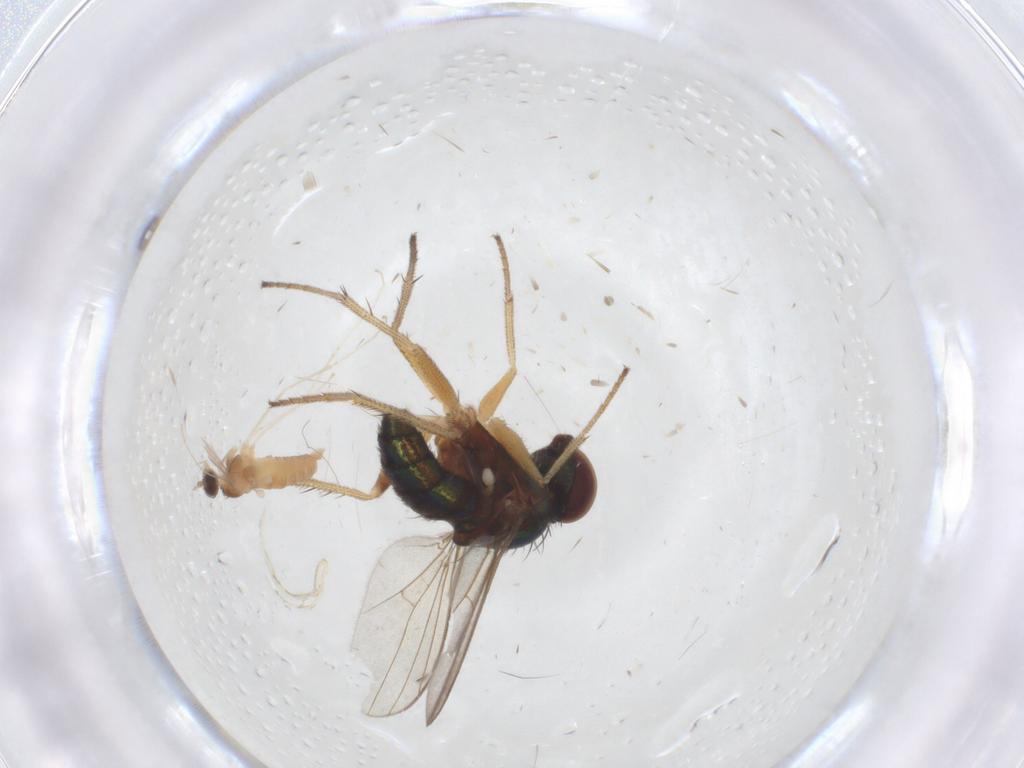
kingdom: Animalia
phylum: Arthropoda
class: Insecta
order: Diptera
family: Cecidomyiidae
